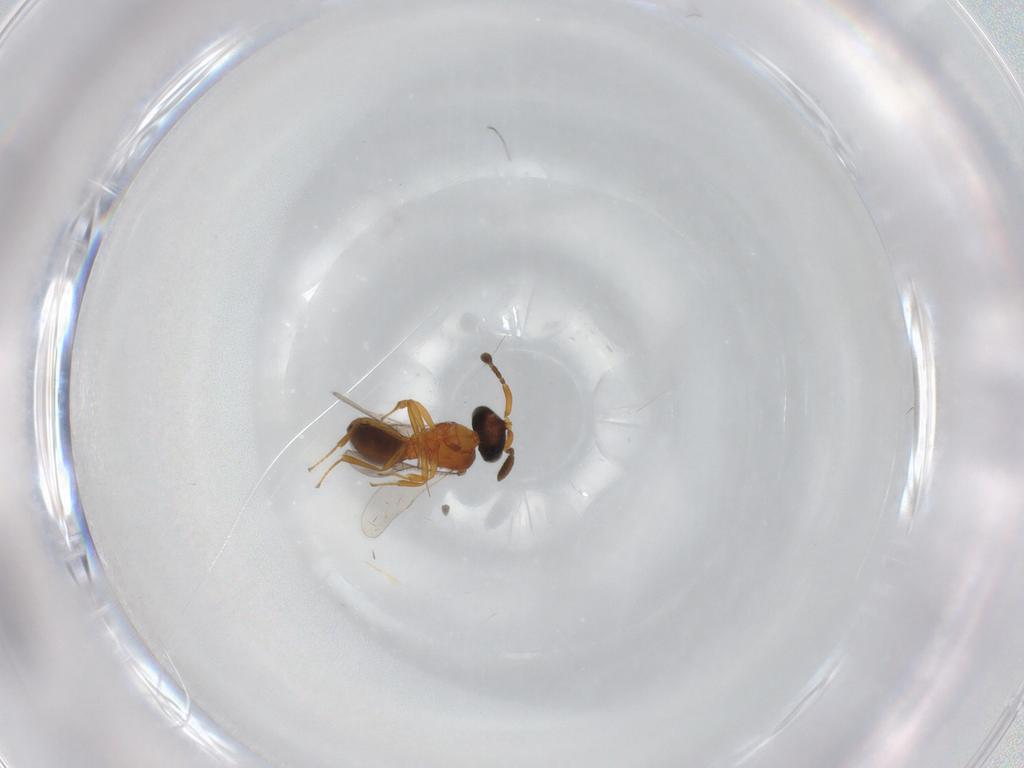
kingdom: Animalia
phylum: Arthropoda
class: Insecta
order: Hymenoptera
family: Scelionidae
